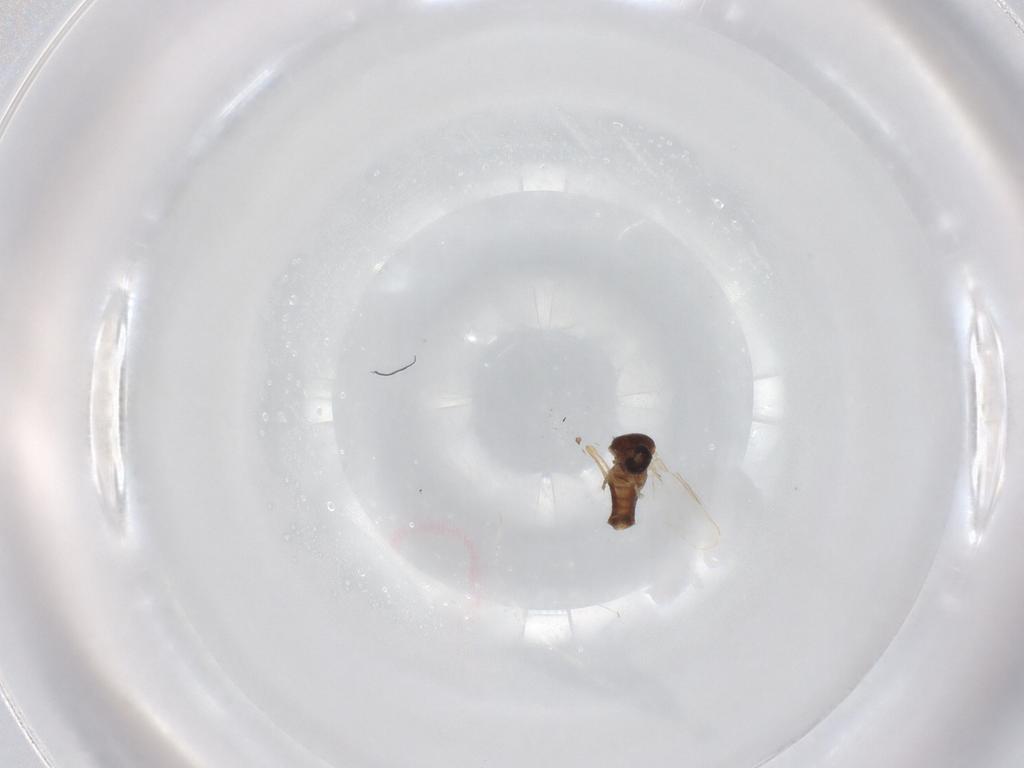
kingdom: Animalia
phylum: Arthropoda
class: Insecta
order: Diptera
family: Ceratopogonidae
